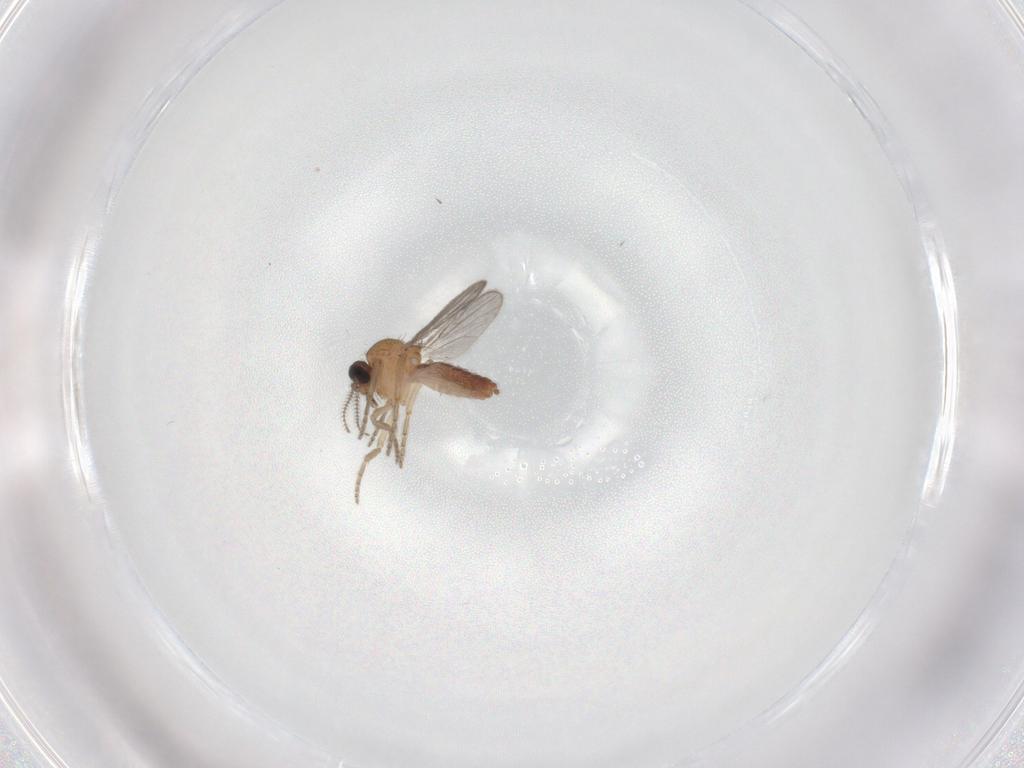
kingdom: Animalia
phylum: Arthropoda
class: Insecta
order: Diptera
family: Ceratopogonidae
